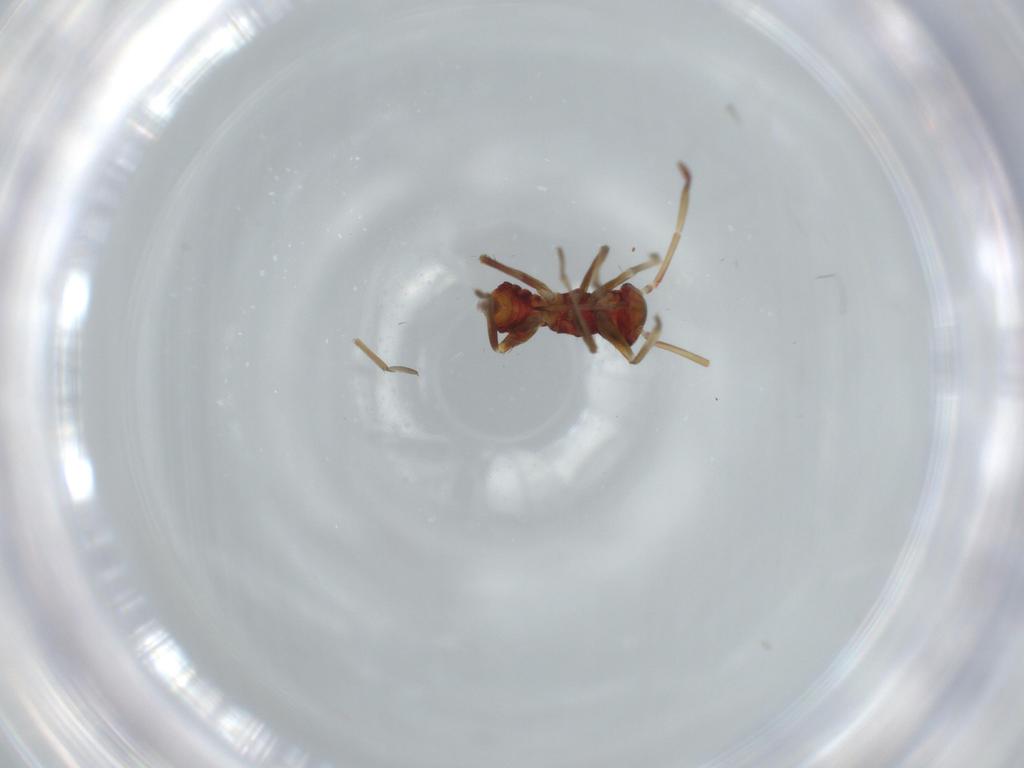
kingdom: Animalia
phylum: Arthropoda
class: Insecta
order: Hemiptera
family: Miridae
